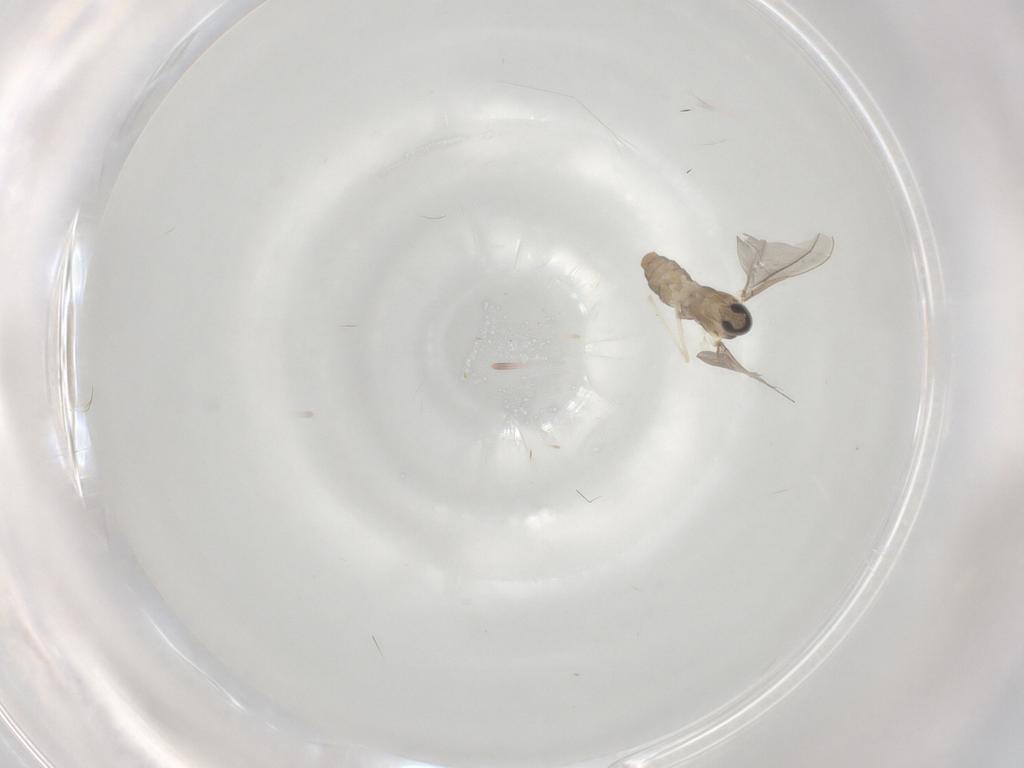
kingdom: Animalia
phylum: Arthropoda
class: Insecta
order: Diptera
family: Cecidomyiidae
